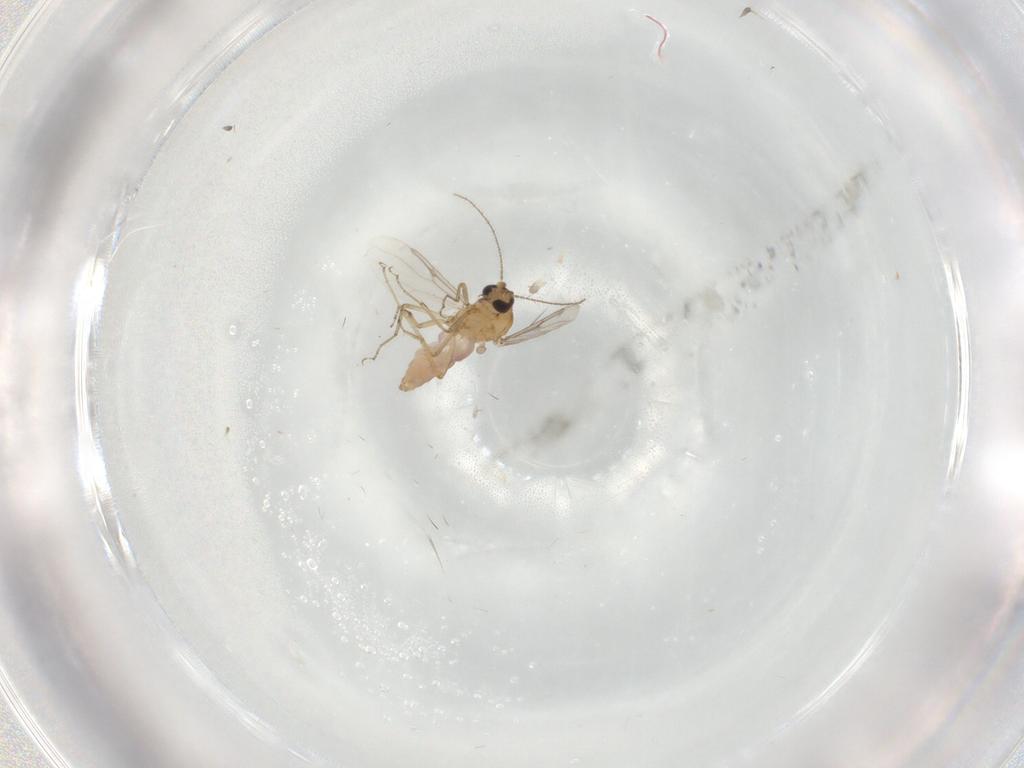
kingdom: Animalia
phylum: Arthropoda
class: Insecta
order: Diptera
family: Ceratopogonidae
